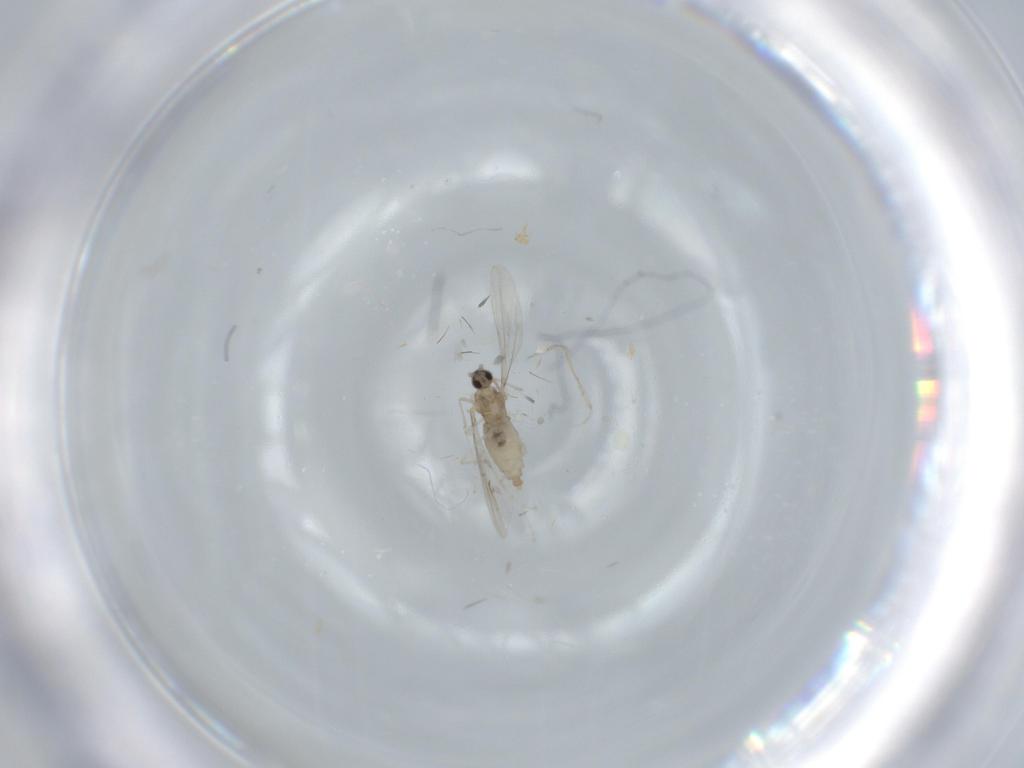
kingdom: Animalia
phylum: Arthropoda
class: Insecta
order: Diptera
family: Cecidomyiidae
